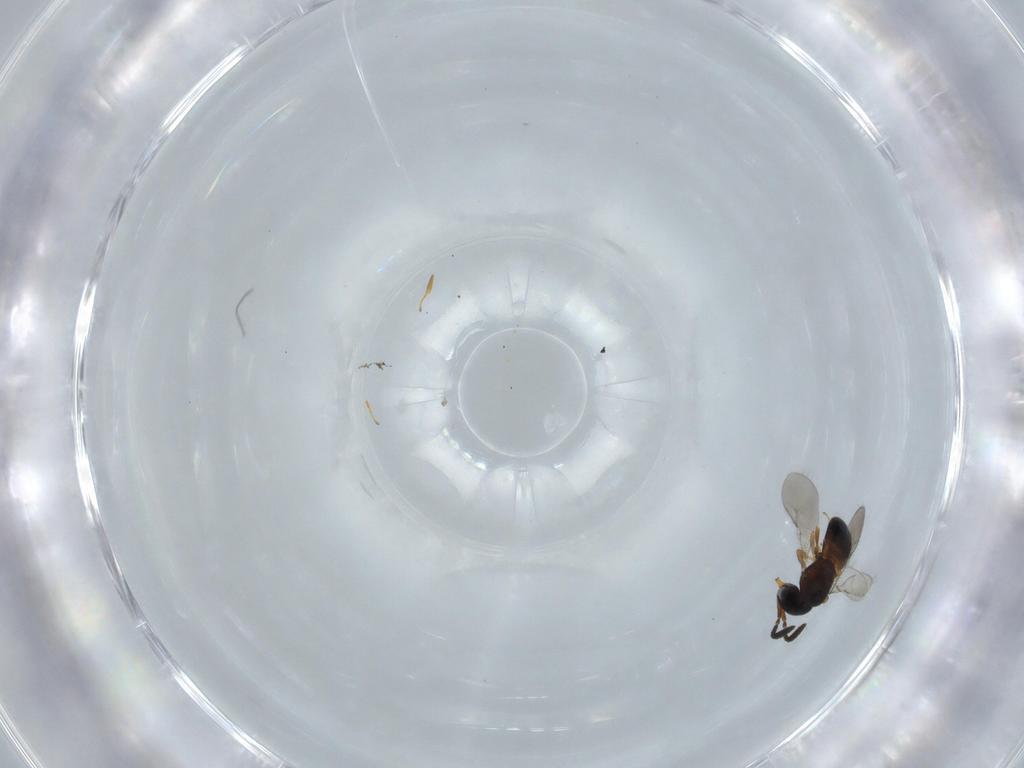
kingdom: Animalia
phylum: Arthropoda
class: Insecta
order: Hymenoptera
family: Scelionidae
